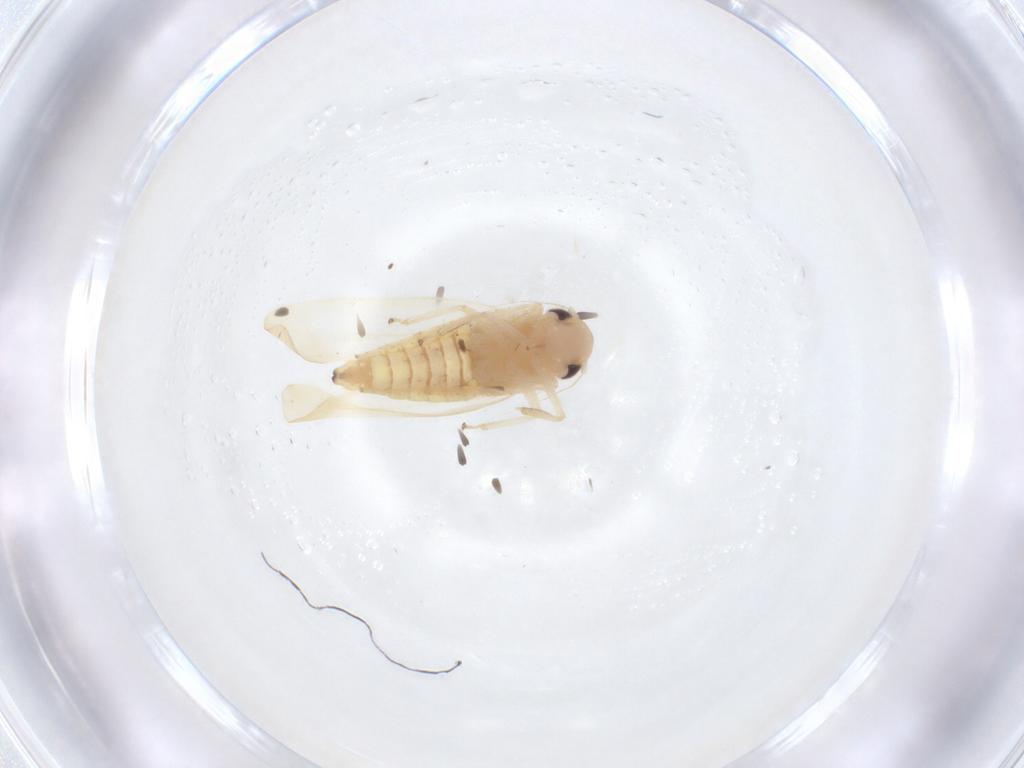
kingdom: Animalia
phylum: Arthropoda
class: Insecta
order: Hemiptera
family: Cicadellidae
